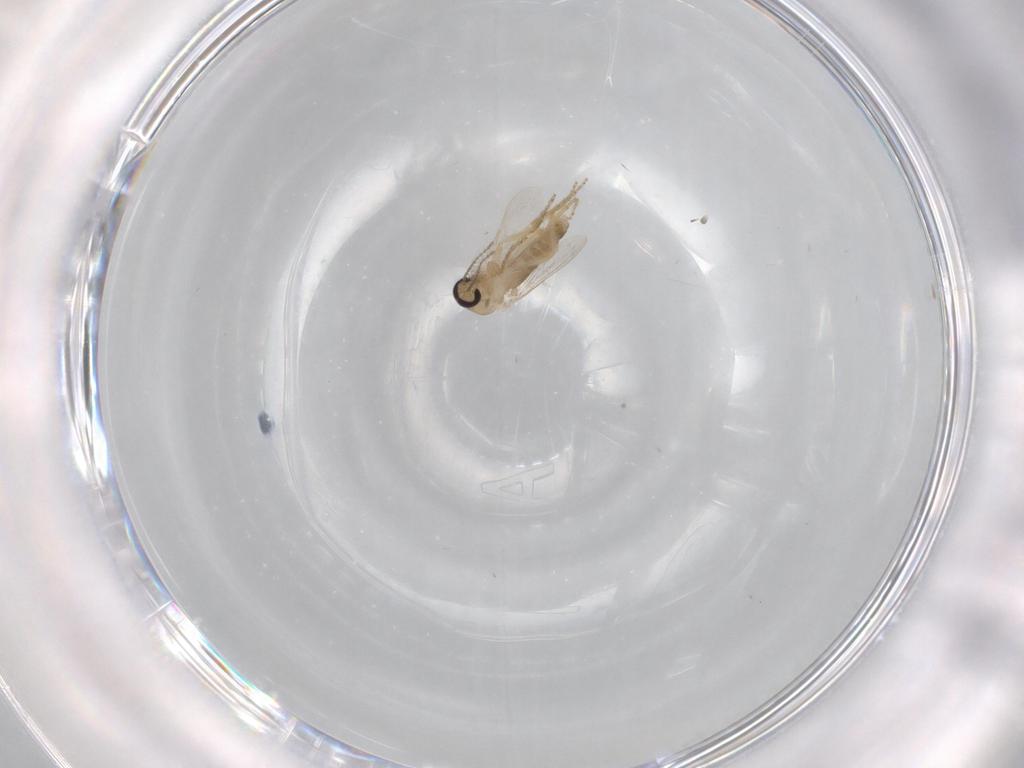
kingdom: Animalia
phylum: Arthropoda
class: Insecta
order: Diptera
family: Ceratopogonidae
